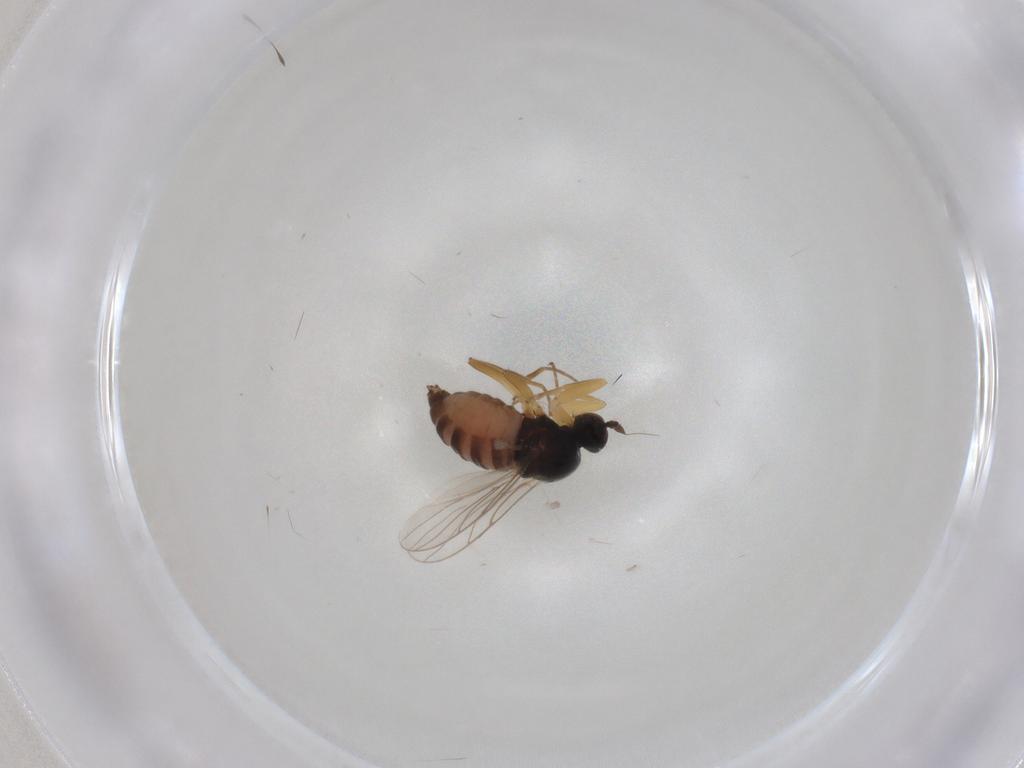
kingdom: Animalia
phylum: Arthropoda
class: Insecta
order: Diptera
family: Hybotidae
